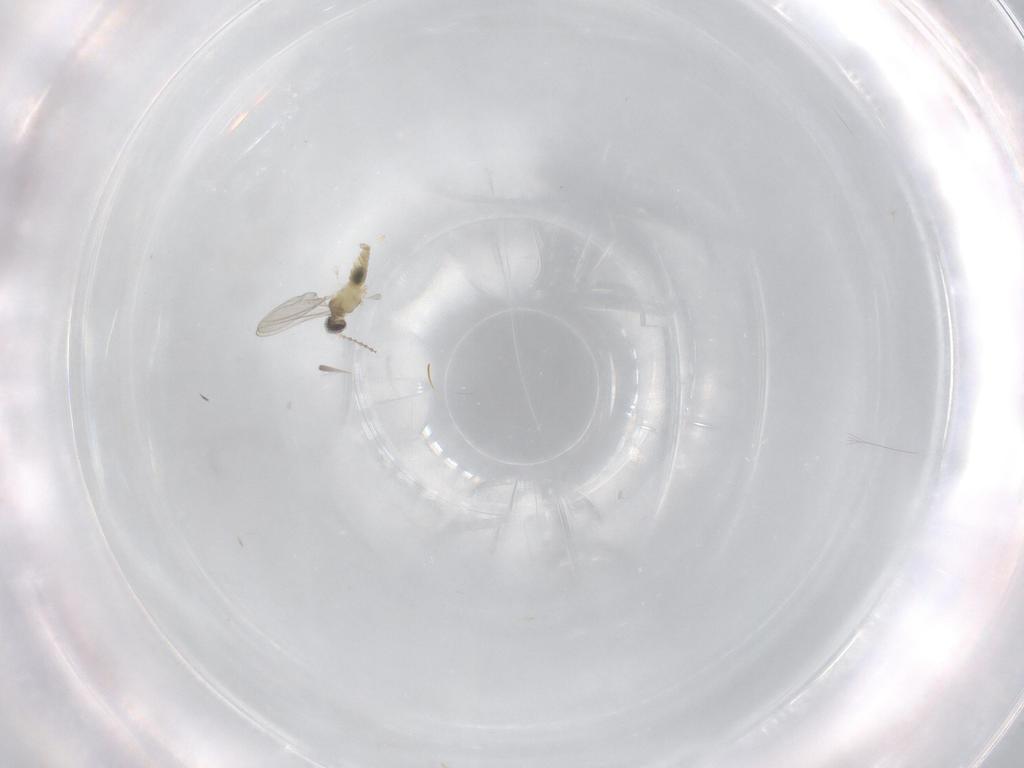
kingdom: Animalia
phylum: Arthropoda
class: Insecta
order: Diptera
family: Cecidomyiidae
